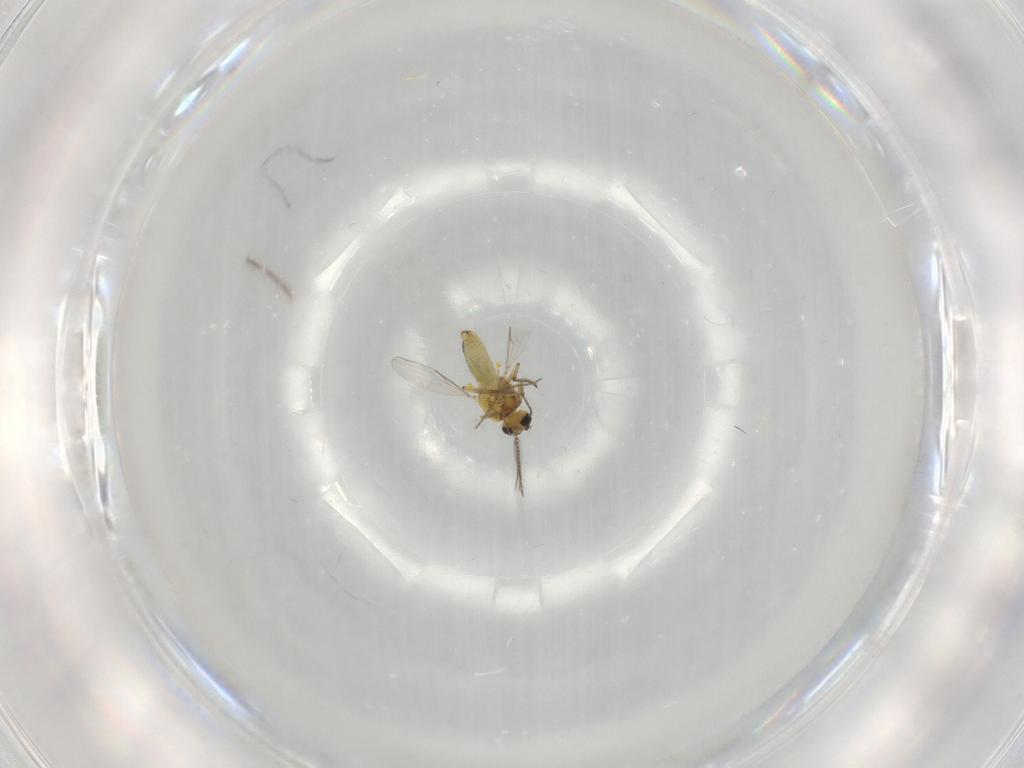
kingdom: Animalia
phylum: Arthropoda
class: Insecta
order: Diptera
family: Ceratopogonidae
